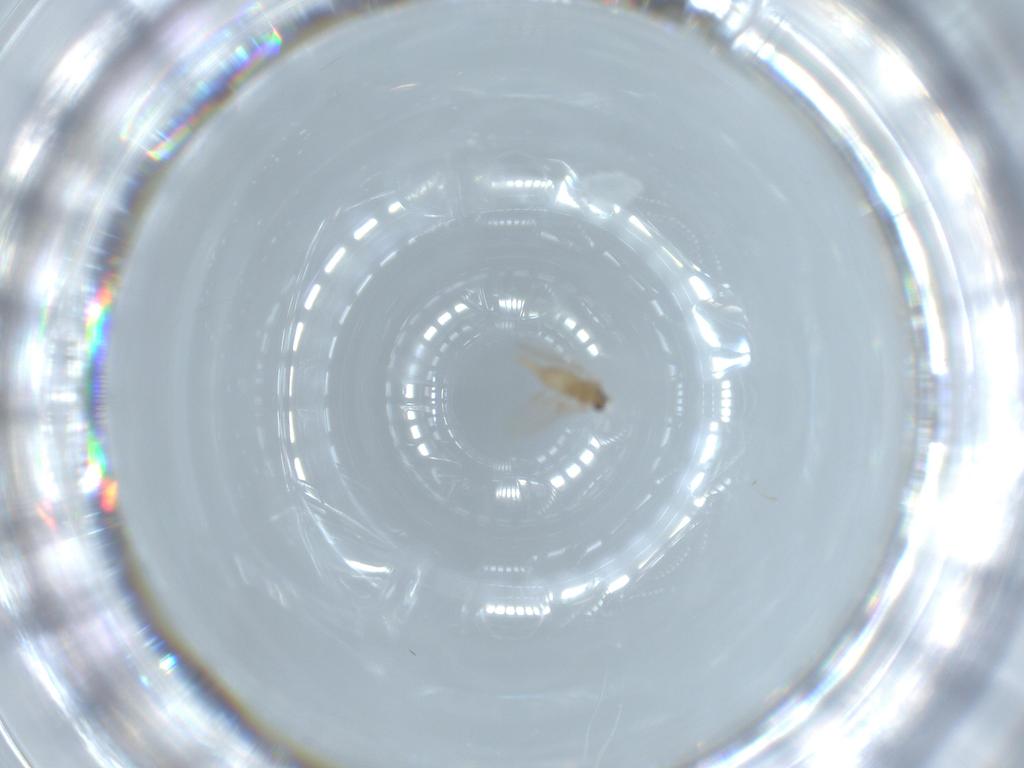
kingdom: Animalia
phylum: Arthropoda
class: Insecta
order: Diptera
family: Cecidomyiidae
